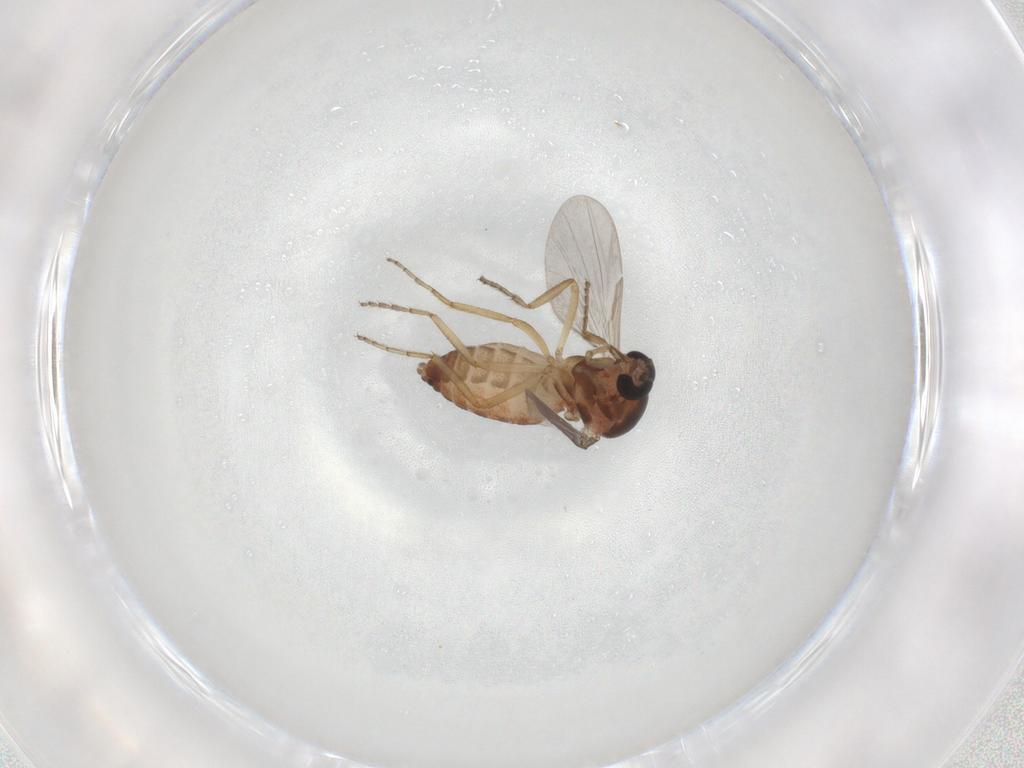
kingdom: Animalia
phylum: Arthropoda
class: Insecta
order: Diptera
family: Ceratopogonidae
